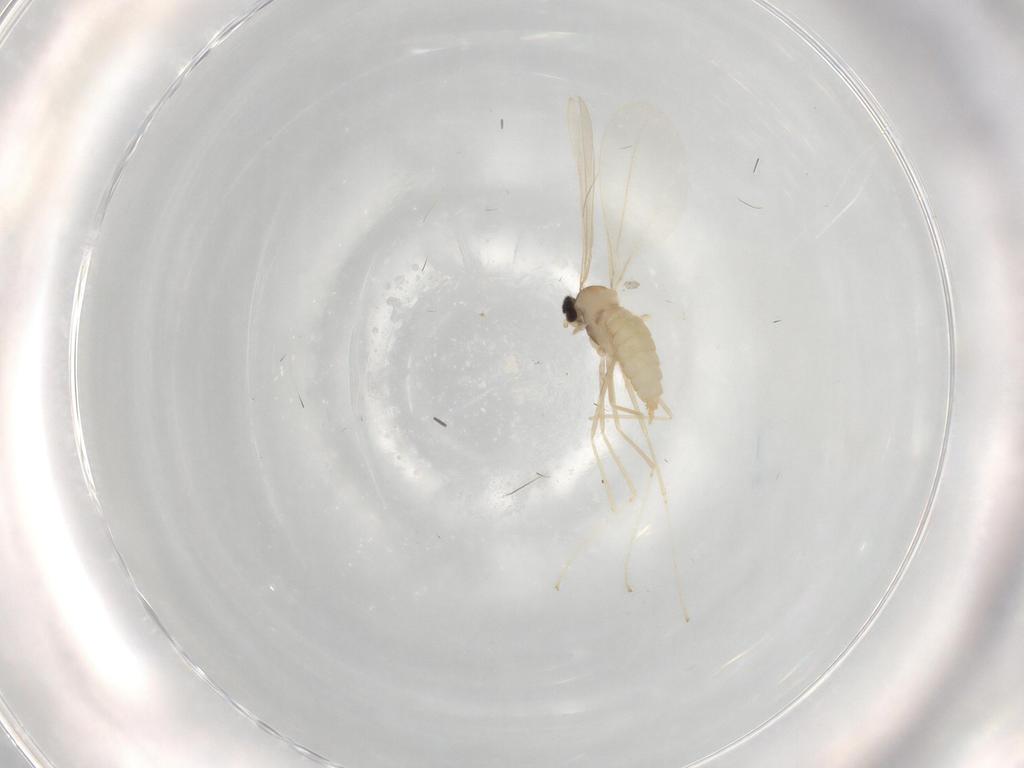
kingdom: Animalia
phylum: Arthropoda
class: Insecta
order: Diptera
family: Cecidomyiidae
